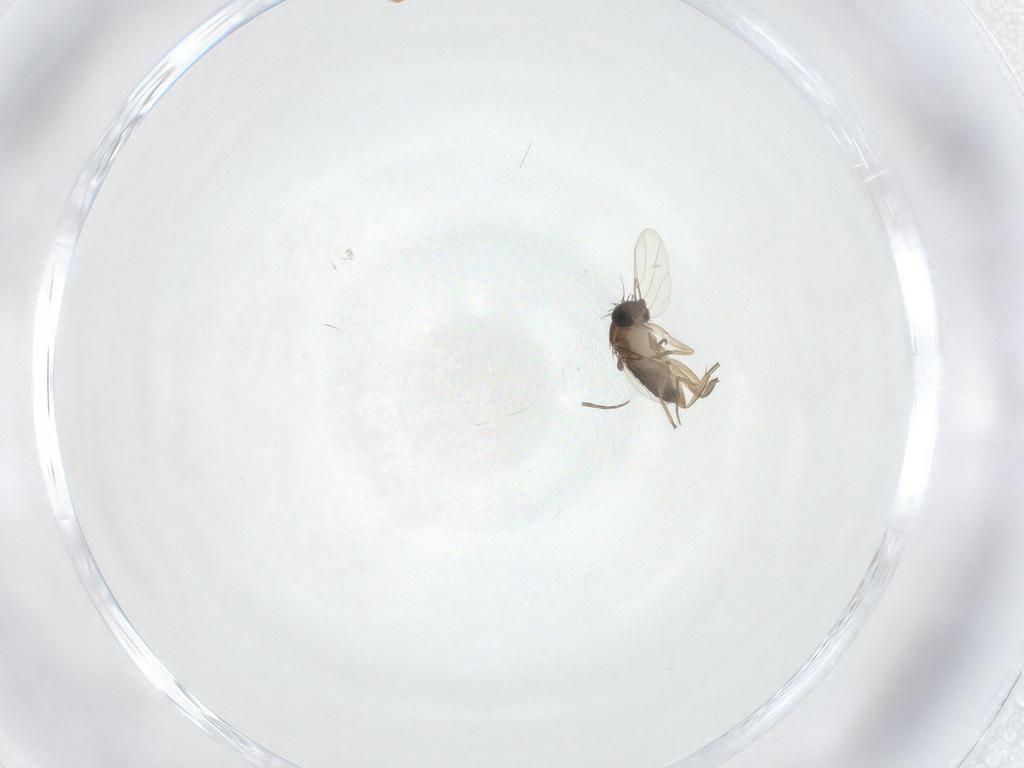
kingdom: Animalia
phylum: Arthropoda
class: Insecta
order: Diptera
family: Phoridae
